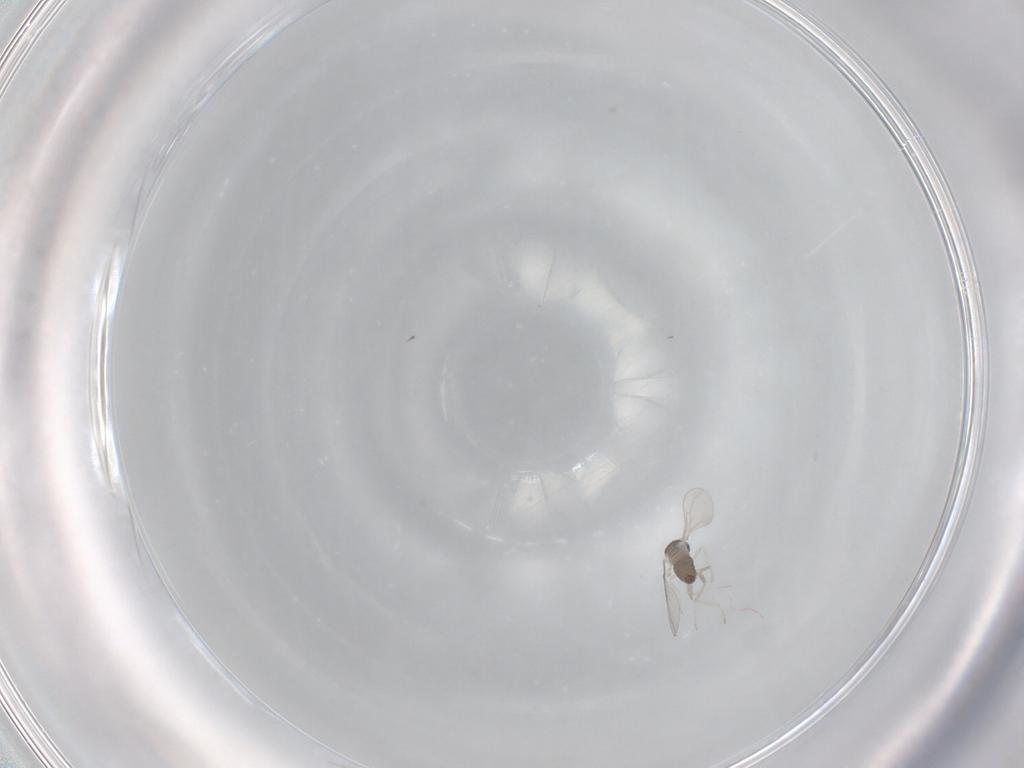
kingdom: Animalia
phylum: Arthropoda
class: Insecta
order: Diptera
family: Cecidomyiidae
